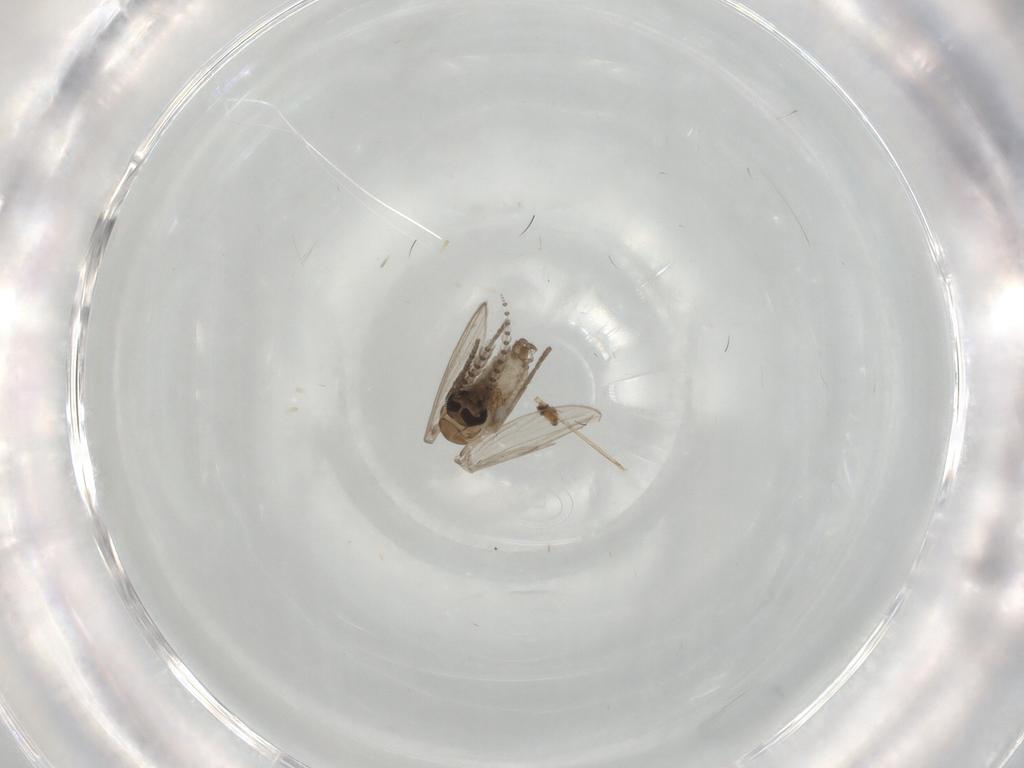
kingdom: Animalia
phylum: Arthropoda
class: Insecta
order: Diptera
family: Psychodidae
